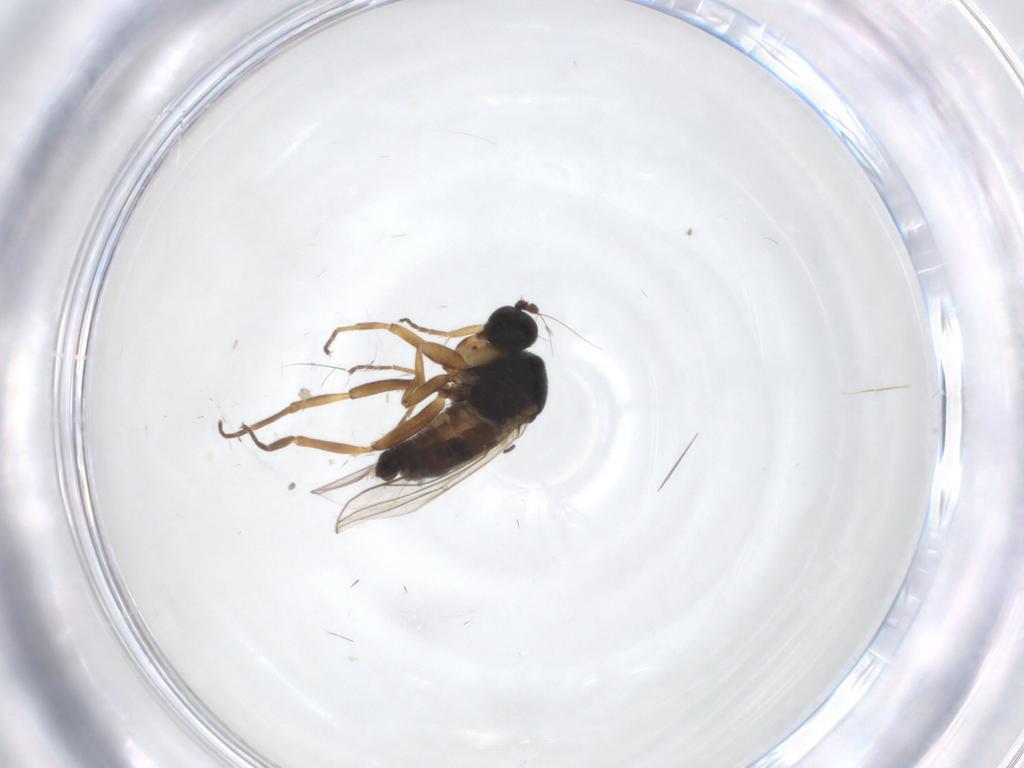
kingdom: Animalia
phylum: Arthropoda
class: Insecta
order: Diptera
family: Hybotidae
